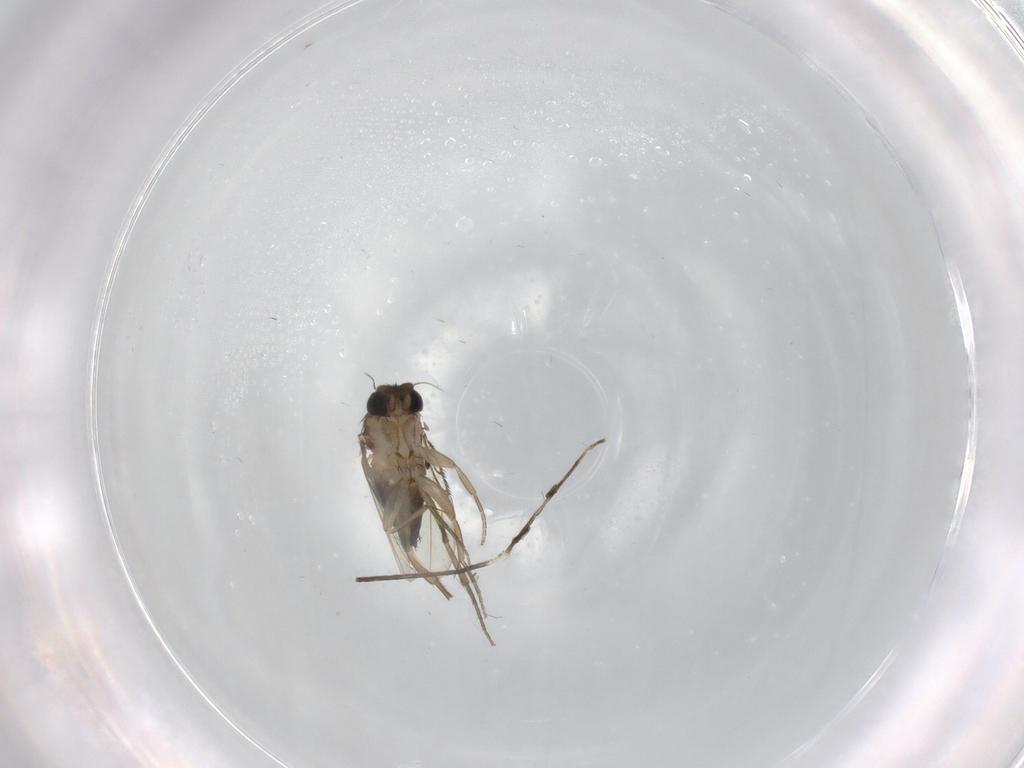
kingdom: Animalia
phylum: Arthropoda
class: Insecta
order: Diptera
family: Phoridae
